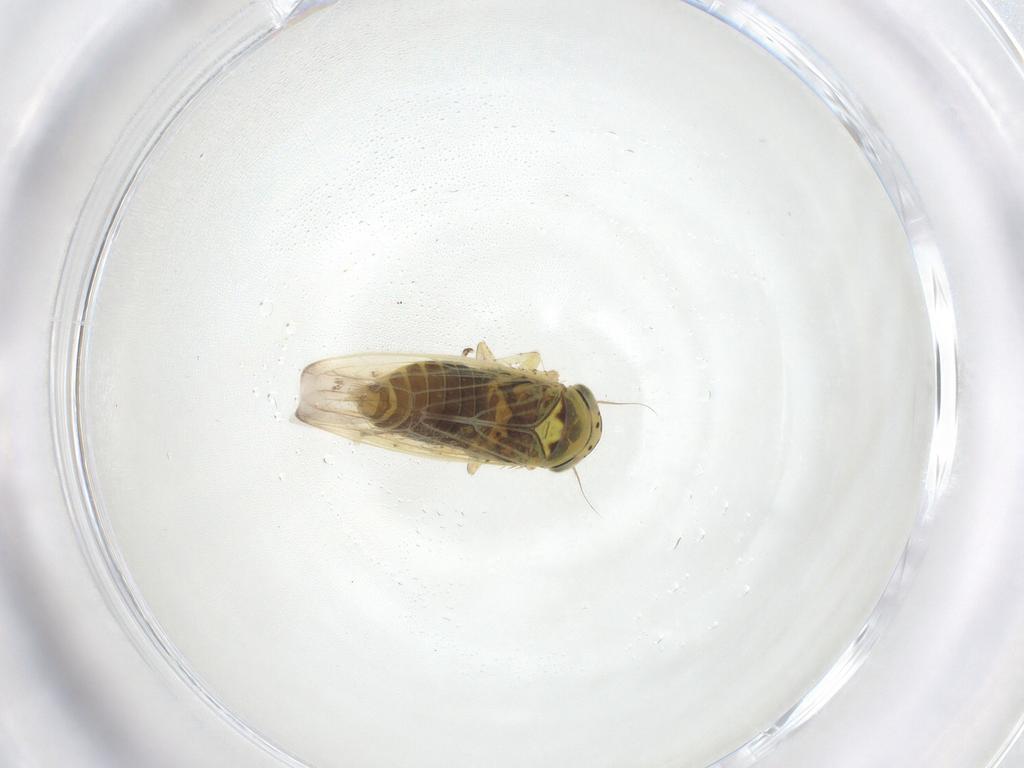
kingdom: Animalia
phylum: Arthropoda
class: Insecta
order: Hemiptera
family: Cicadellidae
